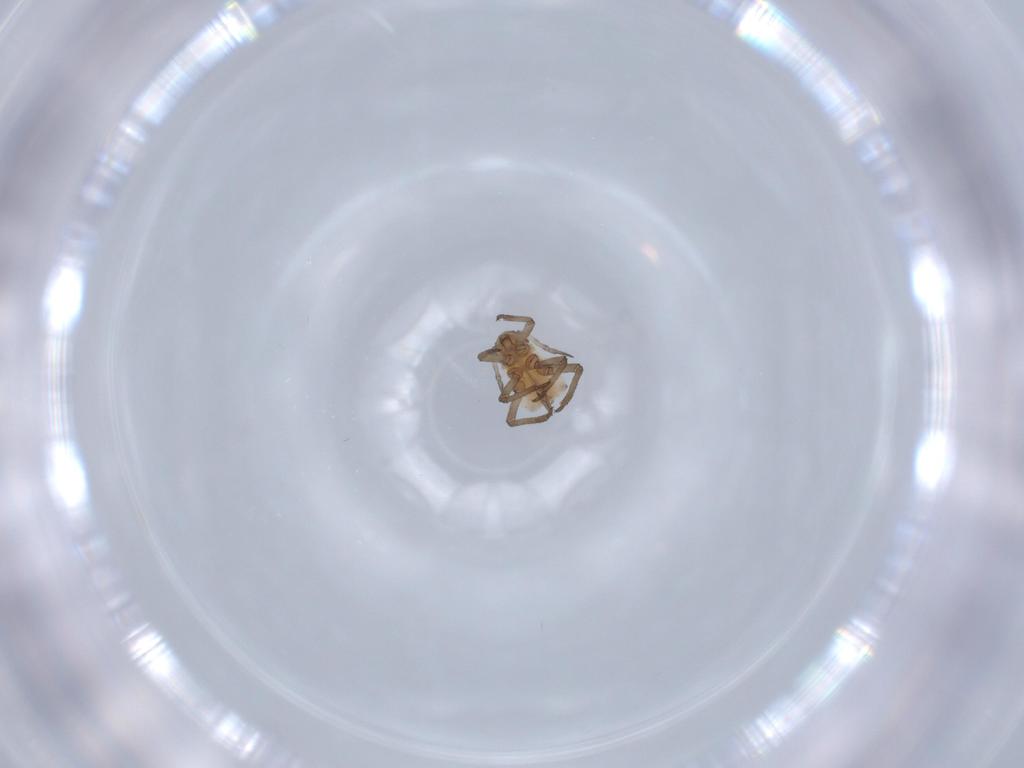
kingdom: Animalia
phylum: Arthropoda
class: Insecta
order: Hemiptera
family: Aphididae
